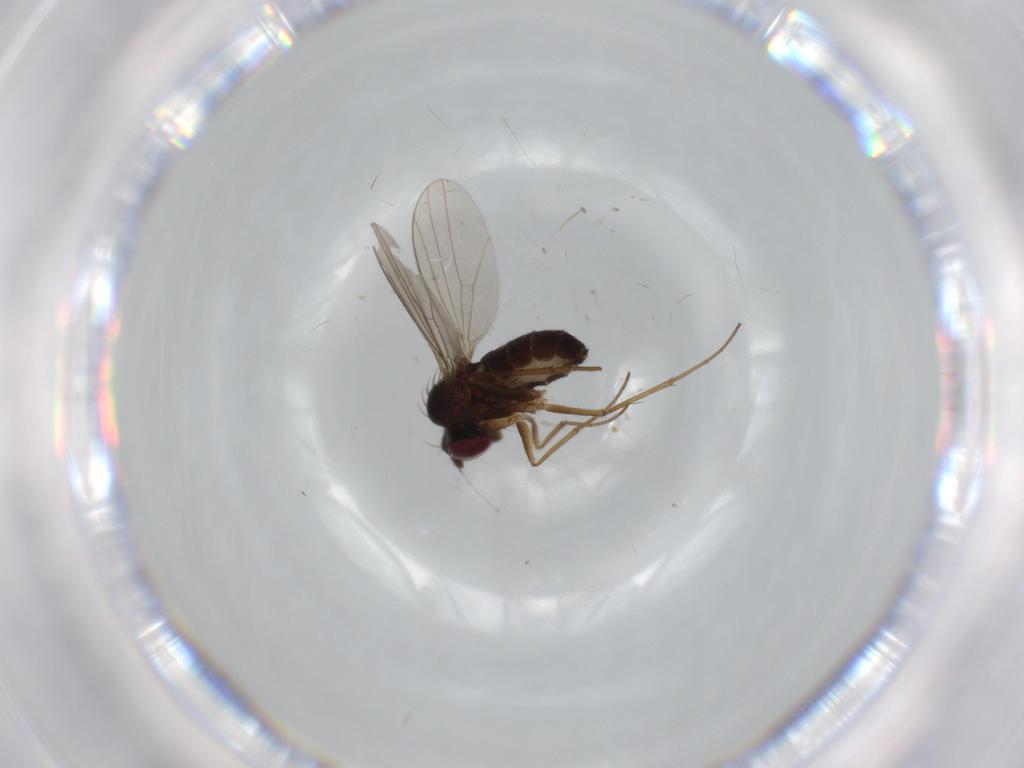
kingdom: Animalia
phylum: Arthropoda
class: Insecta
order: Diptera
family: Dolichopodidae
